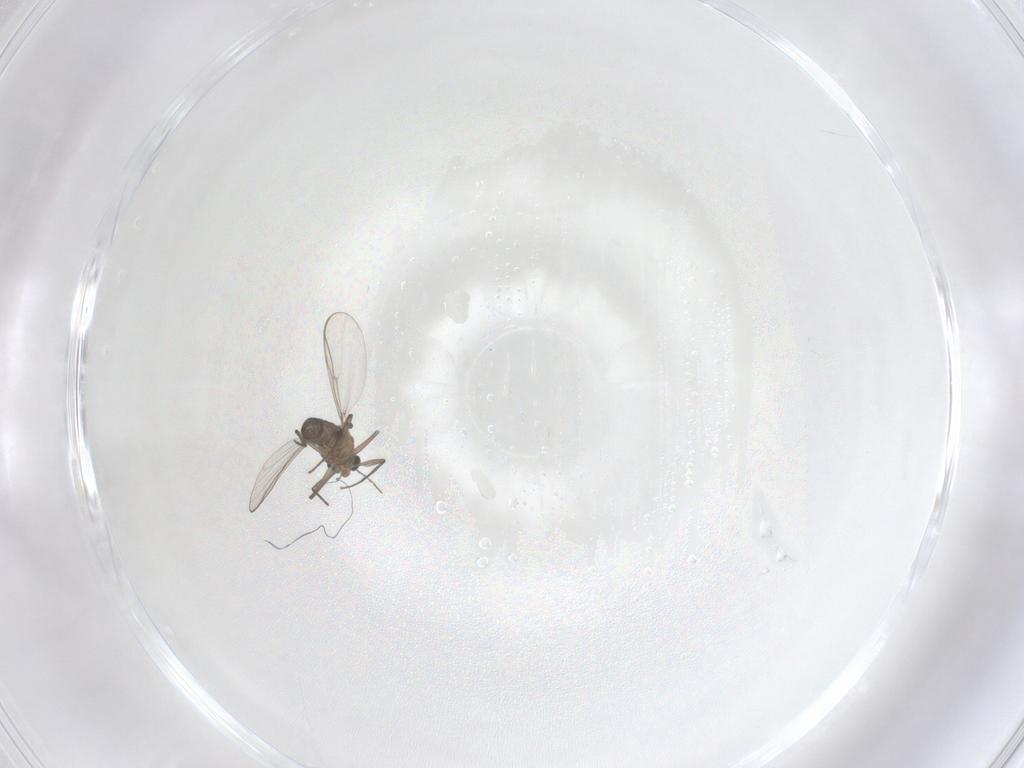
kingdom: Animalia
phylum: Arthropoda
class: Insecta
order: Diptera
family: Chironomidae
